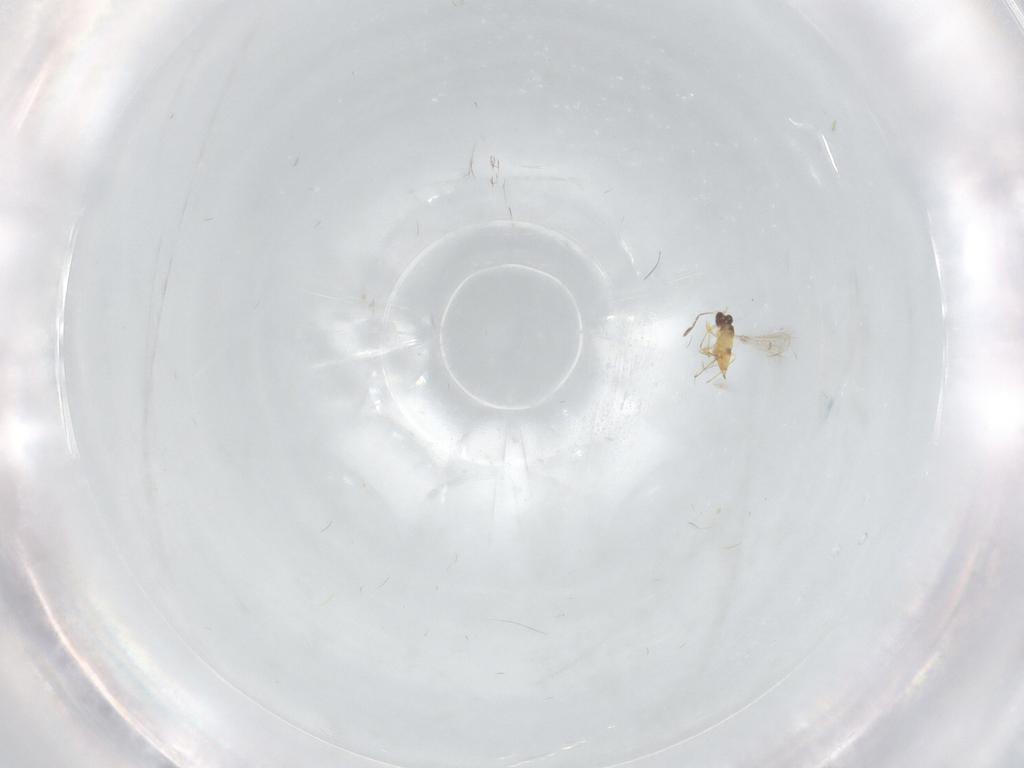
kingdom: Animalia
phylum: Arthropoda
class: Insecta
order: Hymenoptera
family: Mymaridae
